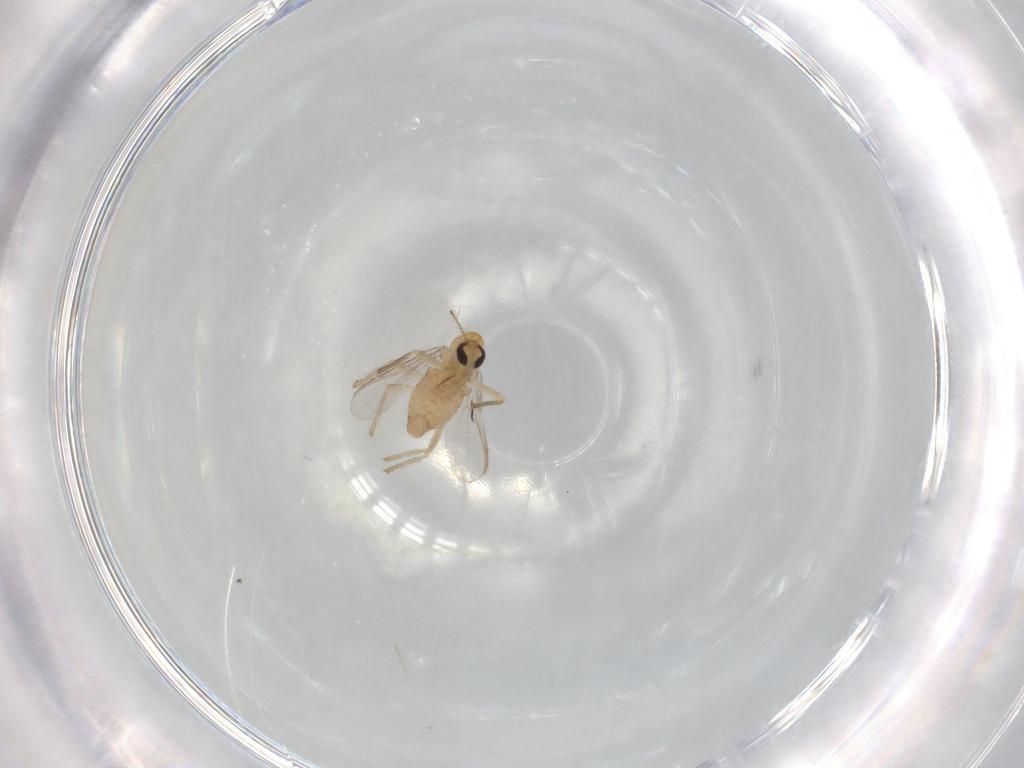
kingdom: Animalia
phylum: Arthropoda
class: Insecta
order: Diptera
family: Chironomidae
